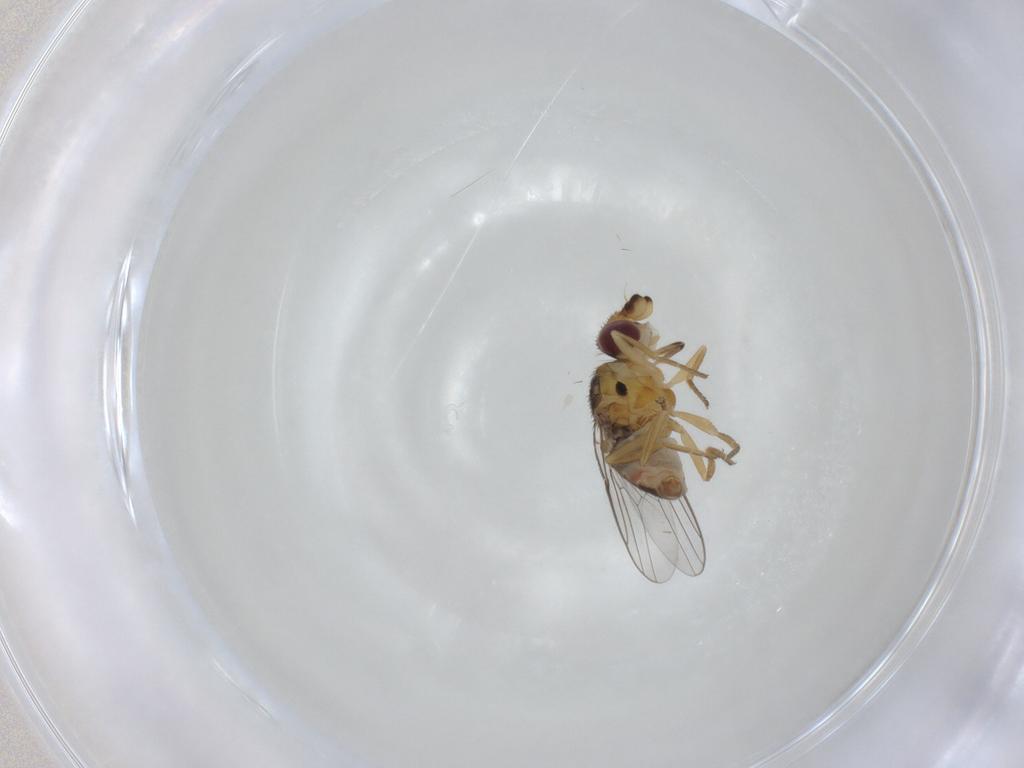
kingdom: Animalia
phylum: Arthropoda
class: Insecta
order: Diptera
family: Chloropidae
